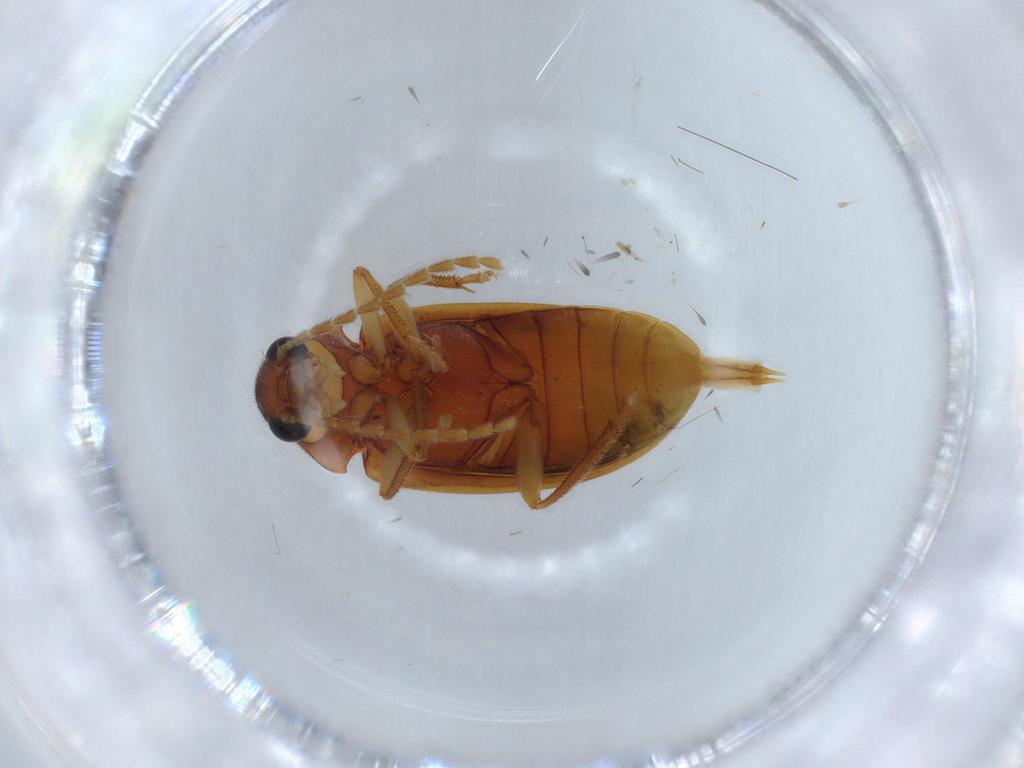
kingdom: Animalia
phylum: Arthropoda
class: Insecta
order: Coleoptera
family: Ptilodactylidae
